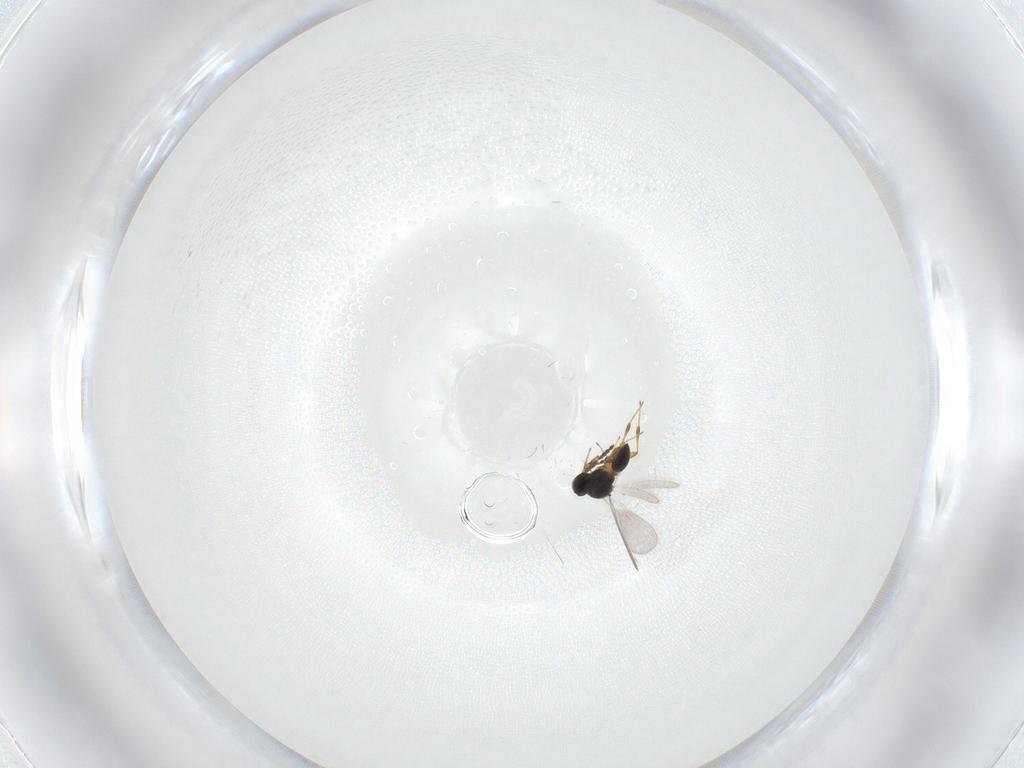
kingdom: Animalia
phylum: Arthropoda
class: Insecta
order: Hymenoptera
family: Platygastridae
